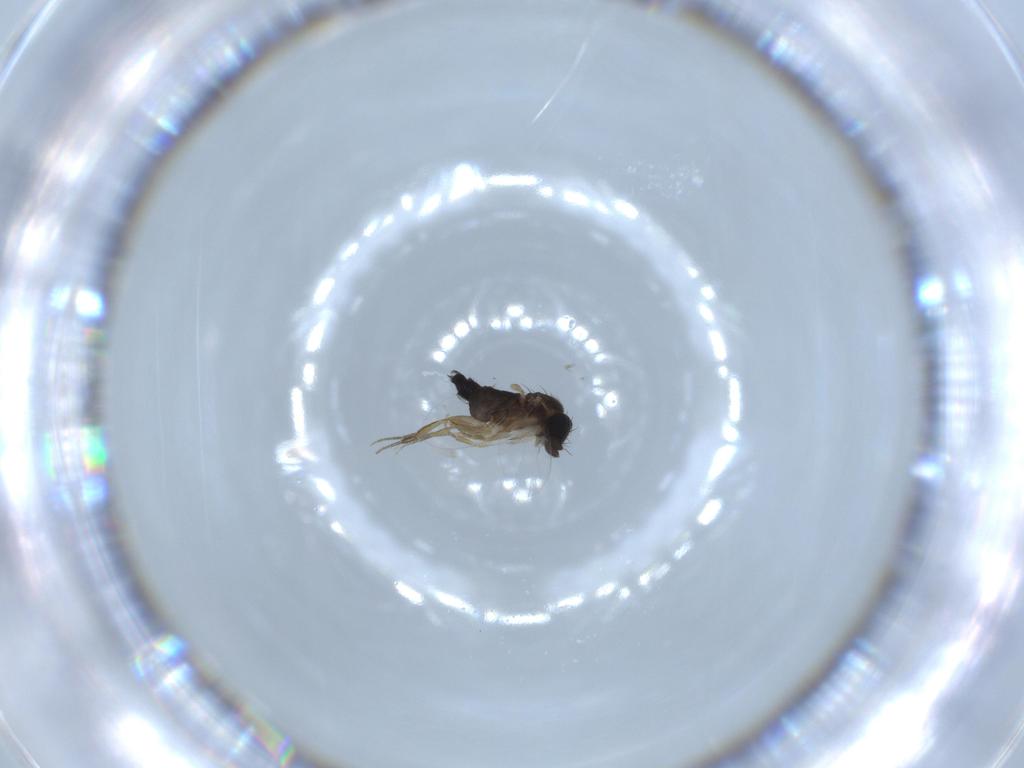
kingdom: Animalia
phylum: Arthropoda
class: Insecta
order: Diptera
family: Phoridae
